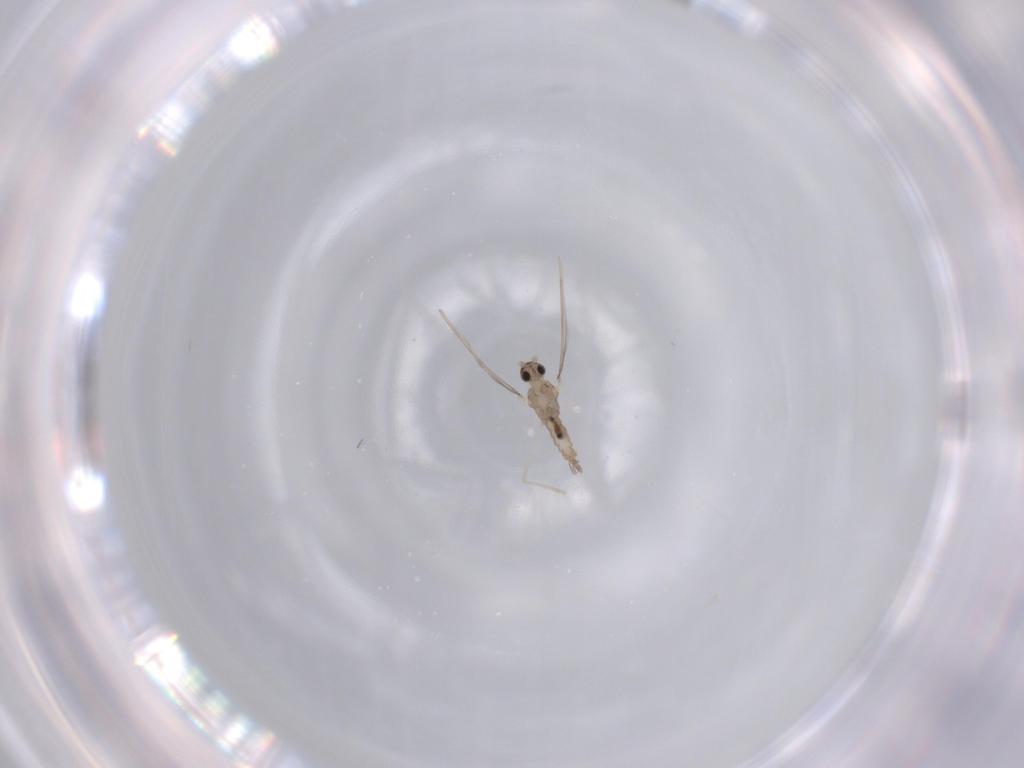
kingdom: Animalia
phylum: Arthropoda
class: Insecta
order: Diptera
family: Cecidomyiidae
